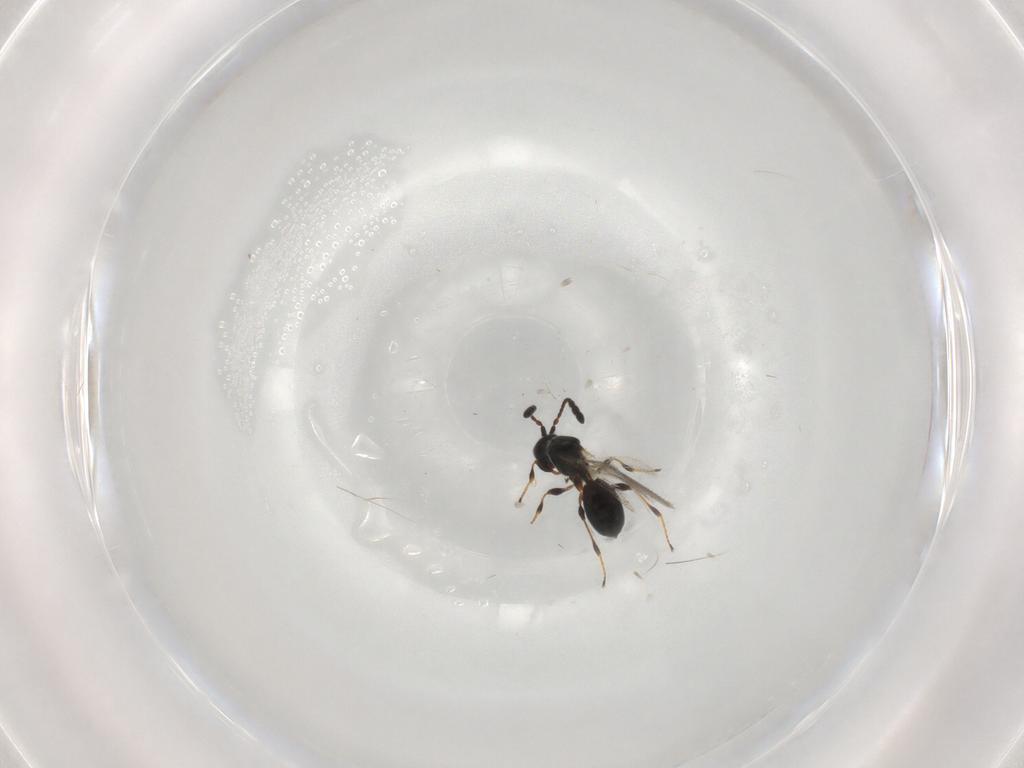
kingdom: Animalia
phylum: Arthropoda
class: Insecta
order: Hymenoptera
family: Diapriidae
